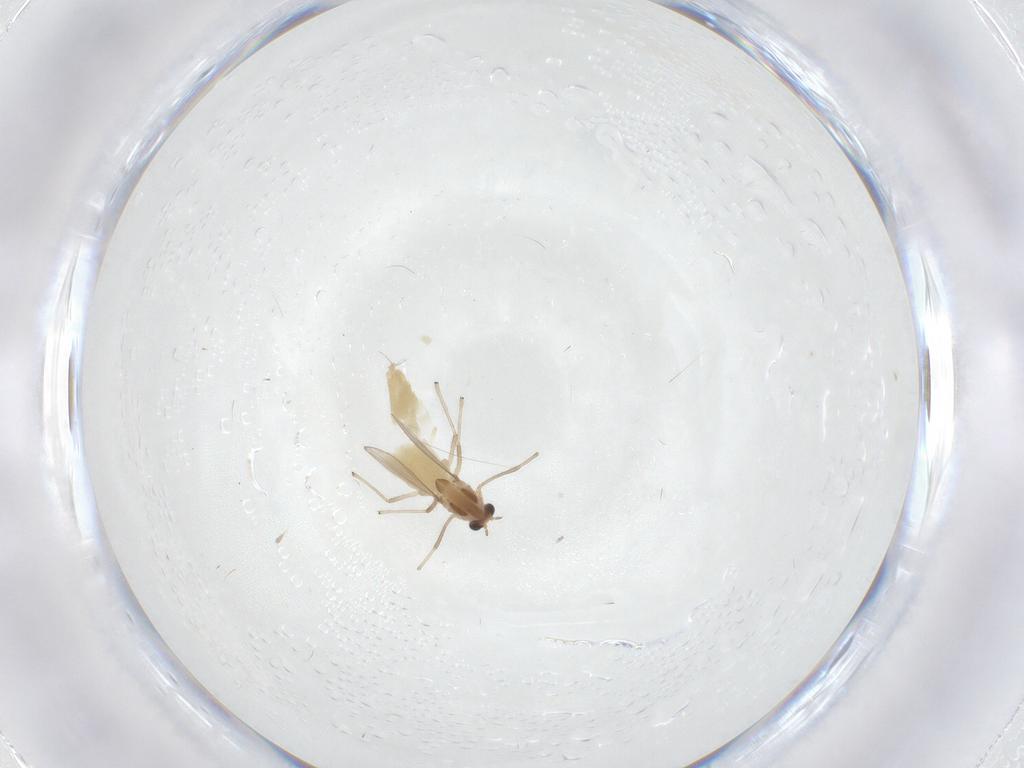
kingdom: Animalia
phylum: Arthropoda
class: Insecta
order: Diptera
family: Chironomidae
